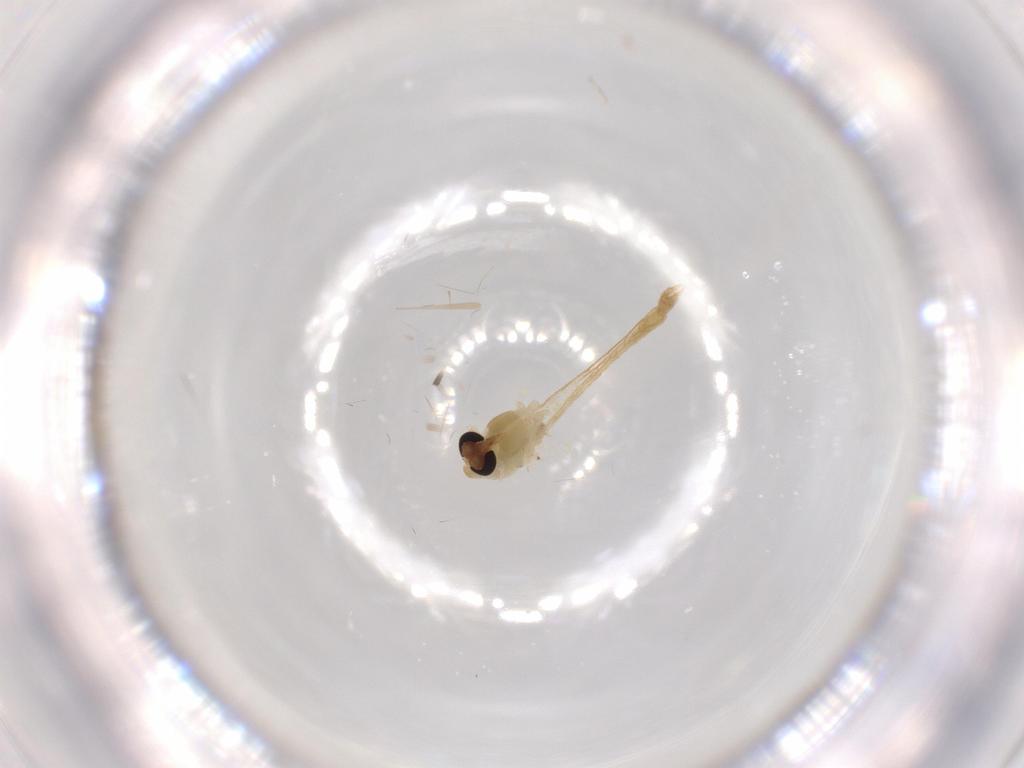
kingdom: Animalia
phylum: Arthropoda
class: Insecta
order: Diptera
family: Chironomidae
